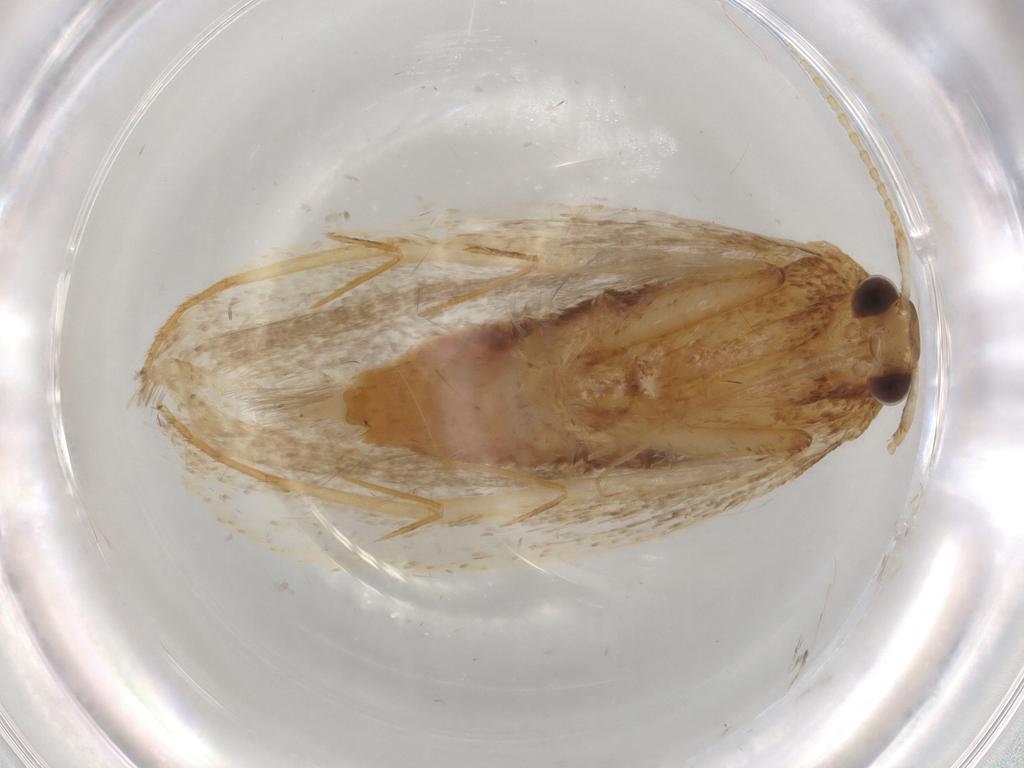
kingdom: Animalia
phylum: Arthropoda
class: Insecta
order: Lepidoptera
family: Lecithoceridae
